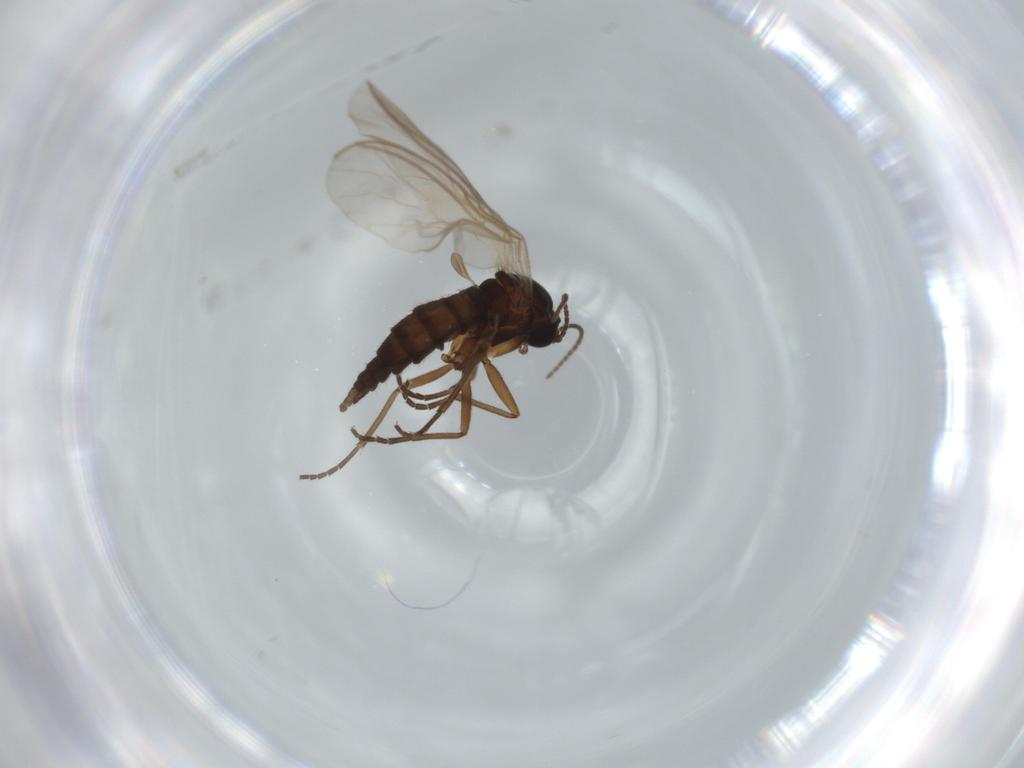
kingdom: Animalia
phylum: Arthropoda
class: Insecta
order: Diptera
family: Sciaridae
